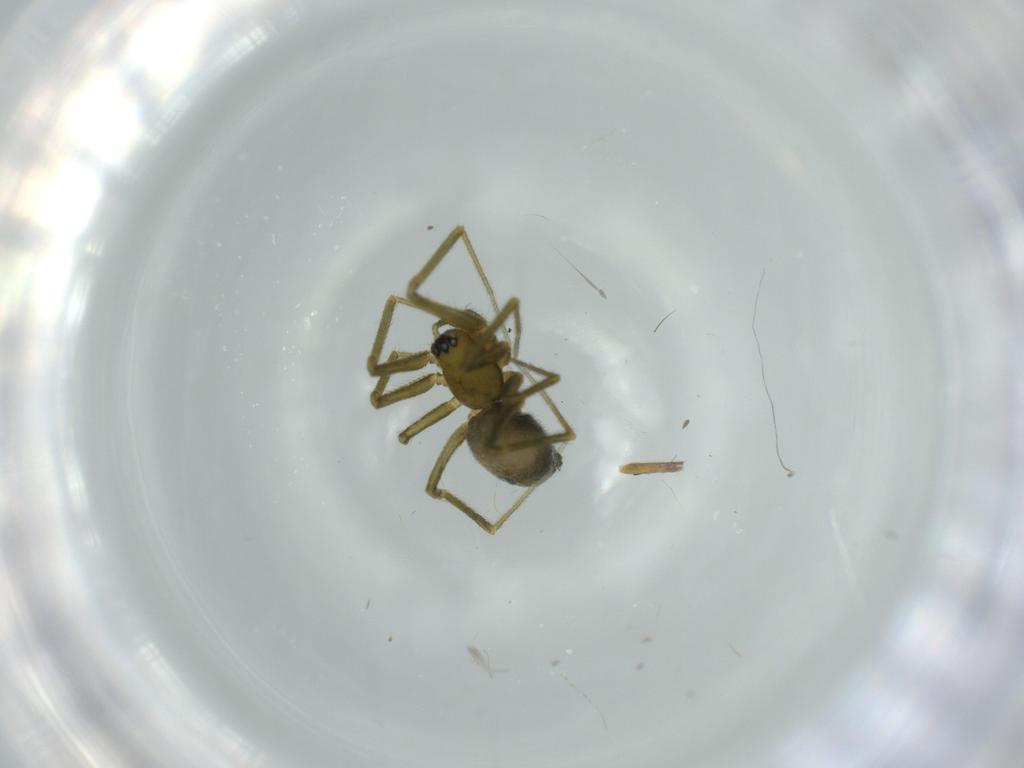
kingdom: Animalia
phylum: Arthropoda
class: Arachnida
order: Araneae
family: Linyphiidae
